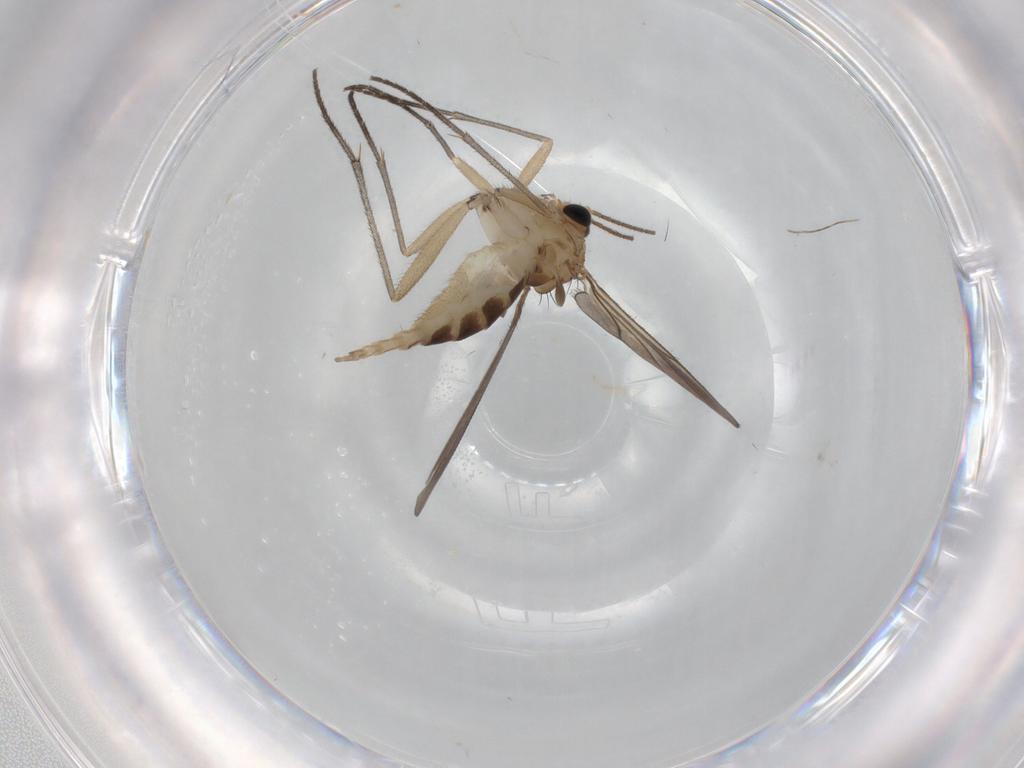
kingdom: Animalia
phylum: Arthropoda
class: Insecta
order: Diptera
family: Sciaridae
